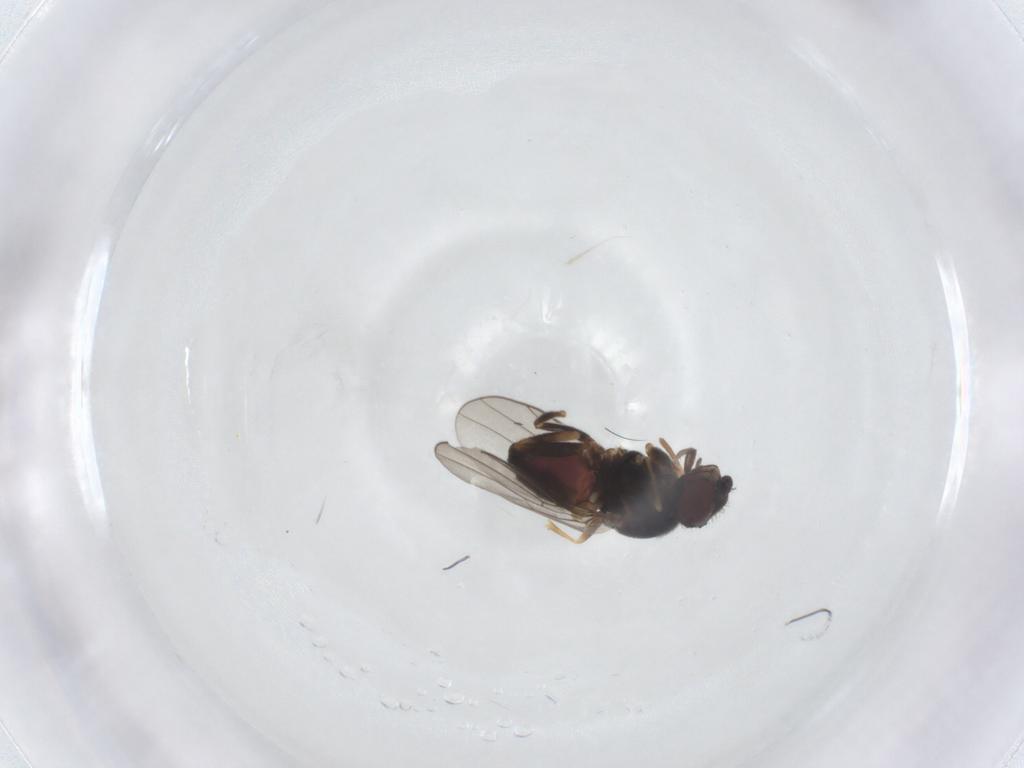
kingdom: Animalia
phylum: Arthropoda
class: Insecta
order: Diptera
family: Chloropidae
